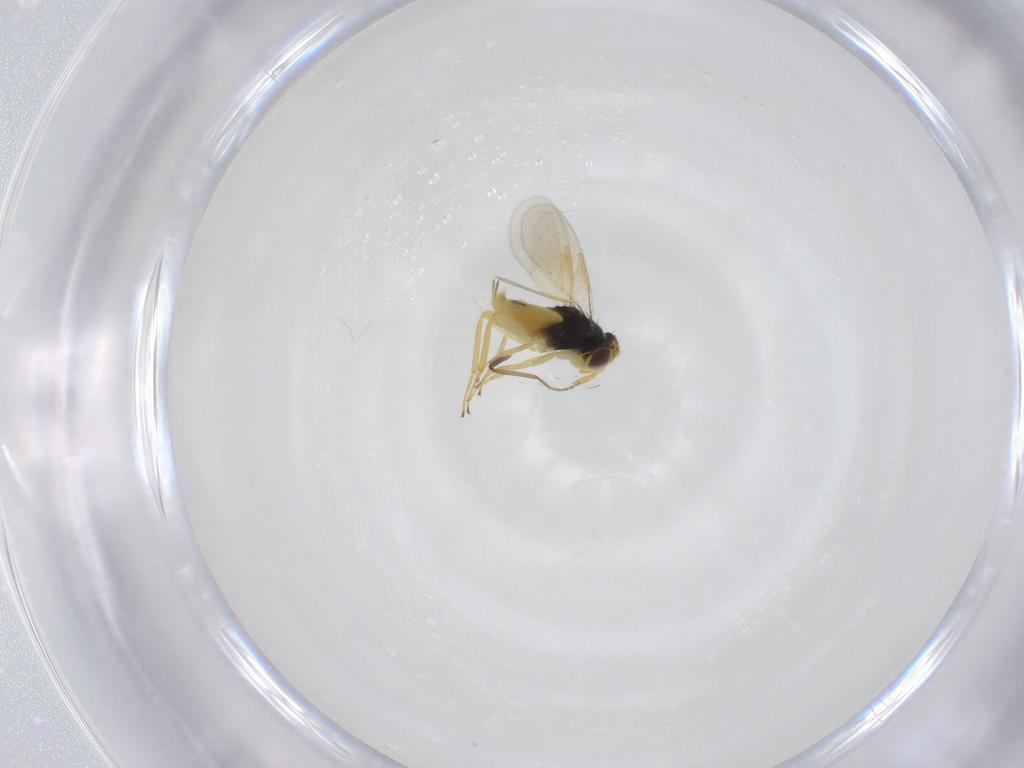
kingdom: Animalia
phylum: Arthropoda
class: Insecta
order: Hymenoptera
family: Aphelinidae
